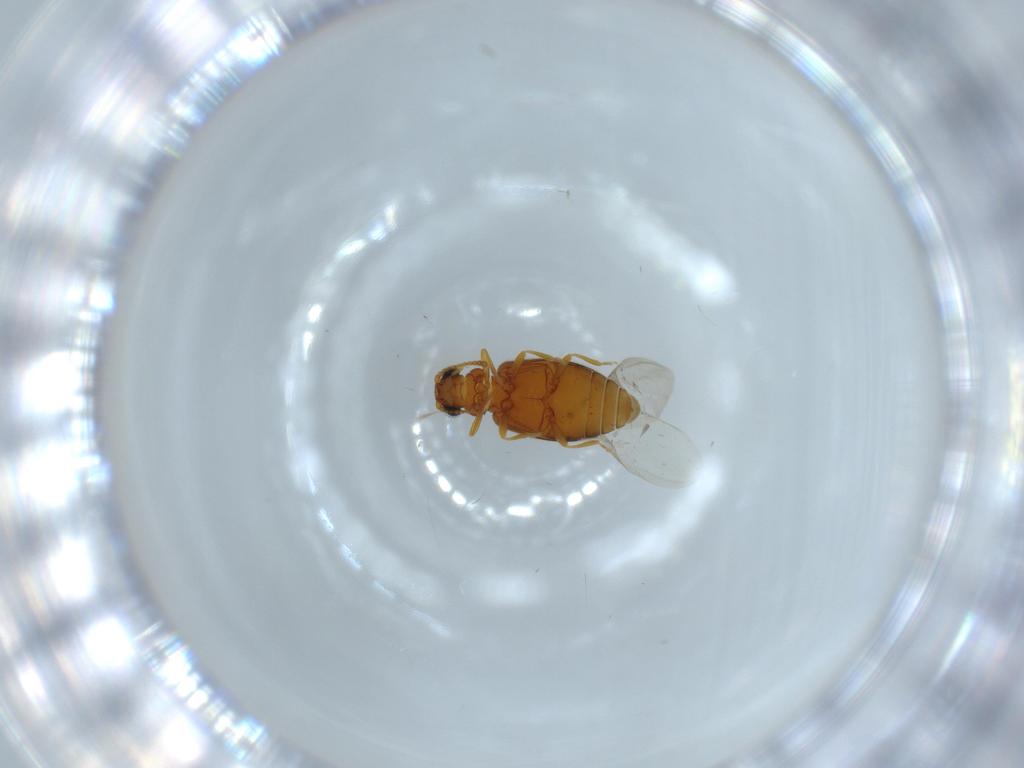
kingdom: Animalia
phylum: Arthropoda
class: Insecta
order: Coleoptera
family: Aderidae
